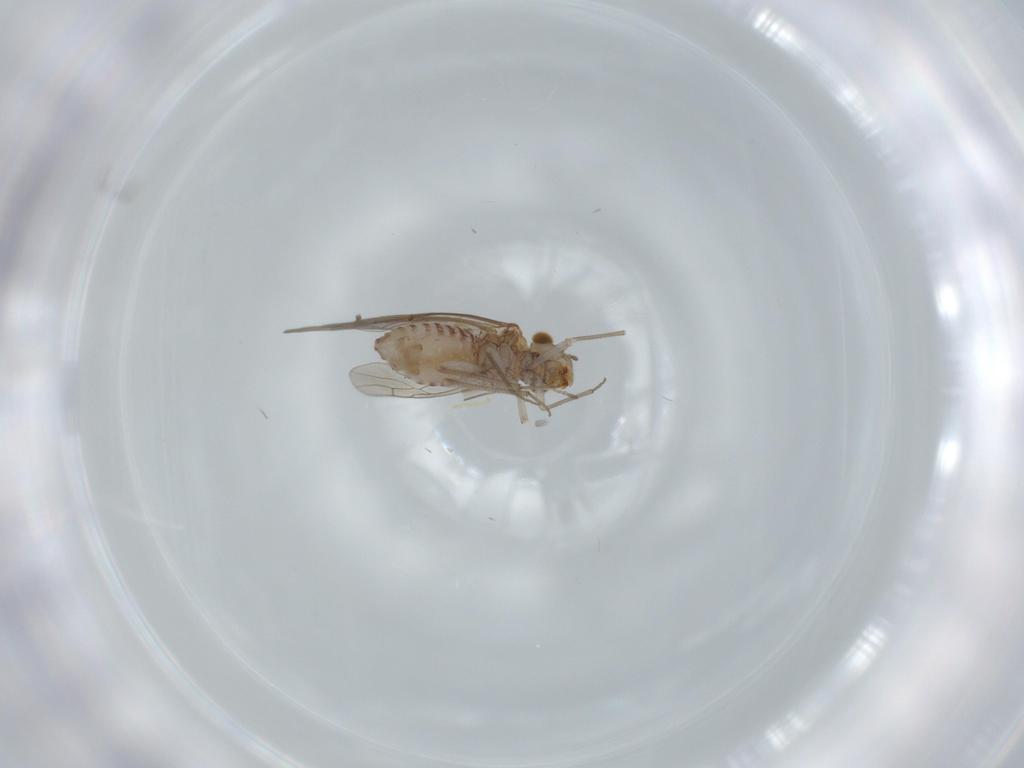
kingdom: Animalia
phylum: Arthropoda
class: Insecta
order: Psocodea
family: Lachesillidae
